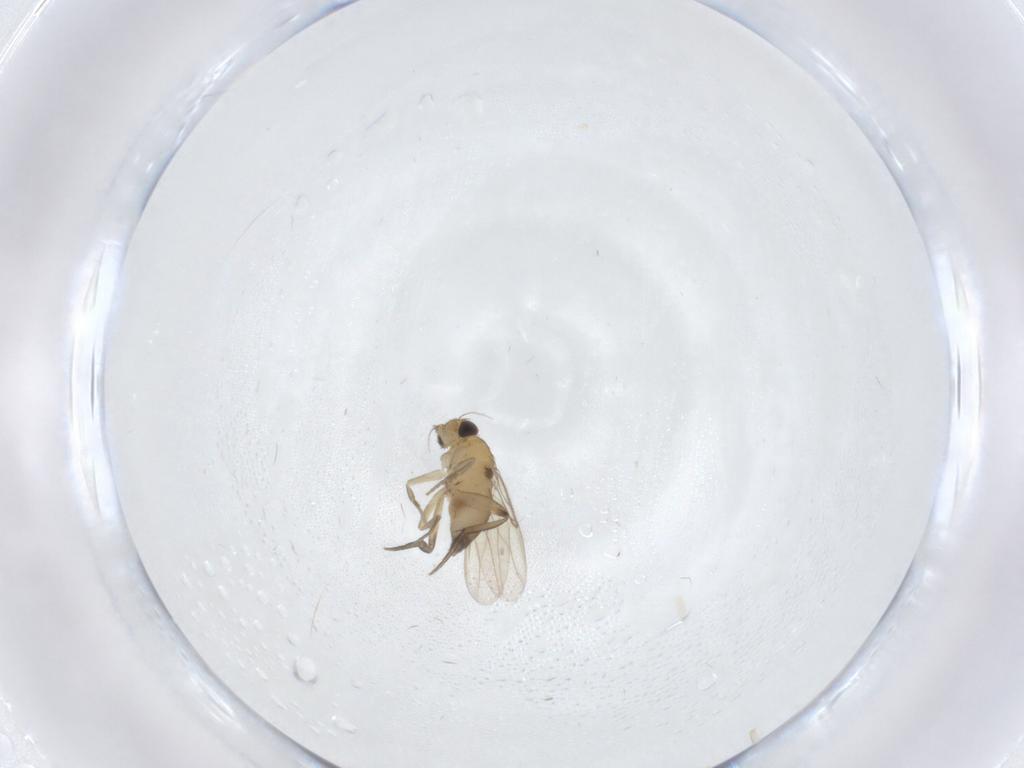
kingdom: Animalia
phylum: Arthropoda
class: Insecta
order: Diptera
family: Phoridae
